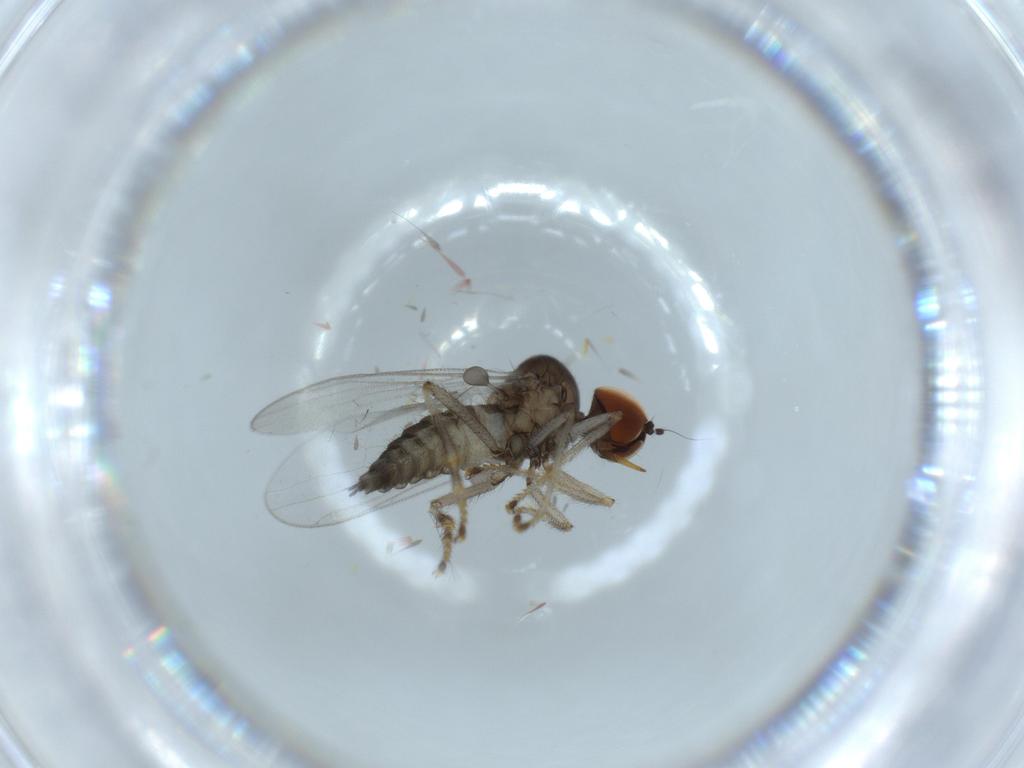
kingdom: Animalia
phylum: Arthropoda
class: Insecta
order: Diptera
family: Hybotidae
